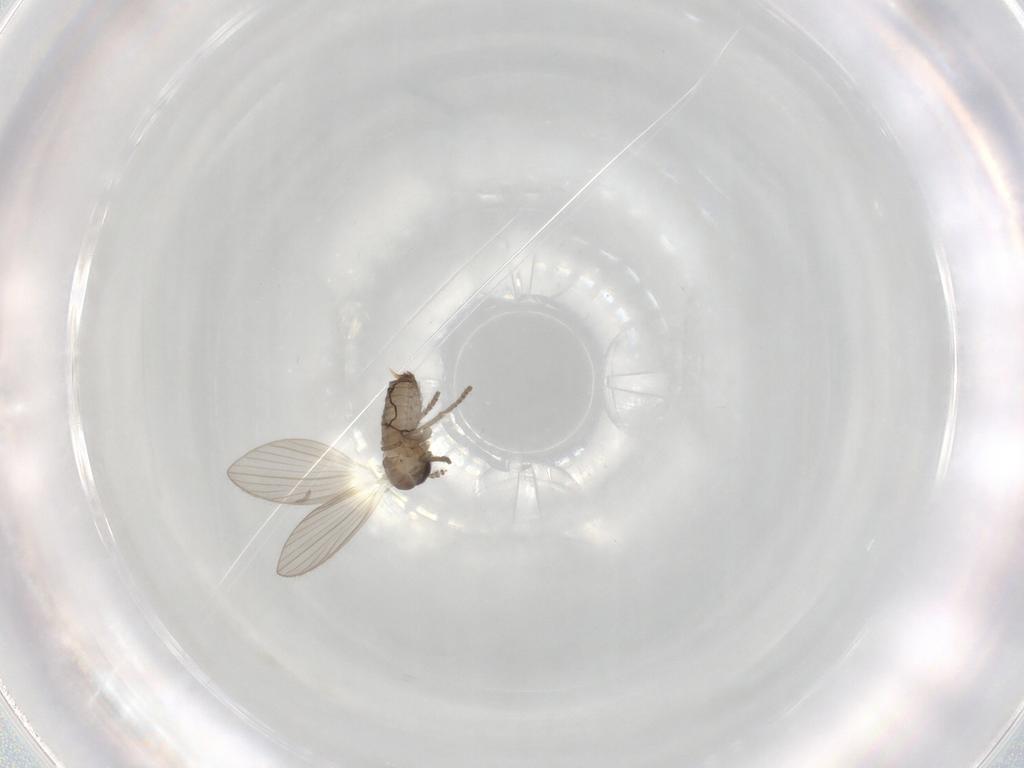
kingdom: Animalia
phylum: Arthropoda
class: Insecta
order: Diptera
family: Psychodidae
